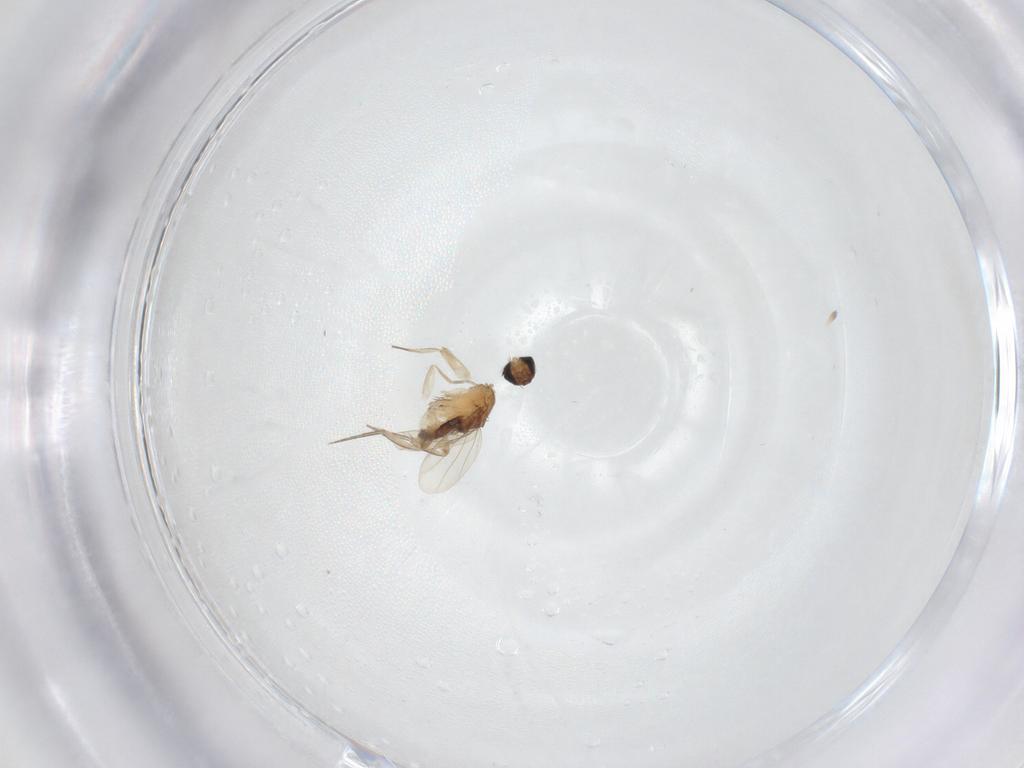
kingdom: Animalia
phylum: Arthropoda
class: Insecta
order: Diptera
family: Phoridae
